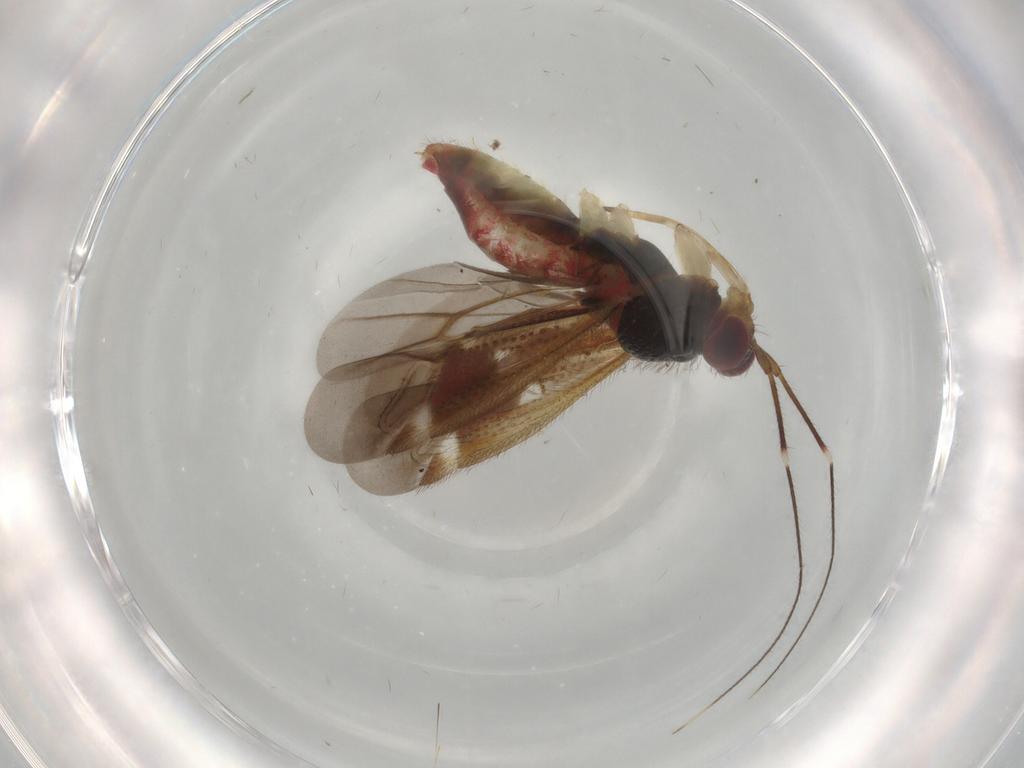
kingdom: Animalia
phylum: Arthropoda
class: Insecta
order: Hemiptera
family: Miridae
